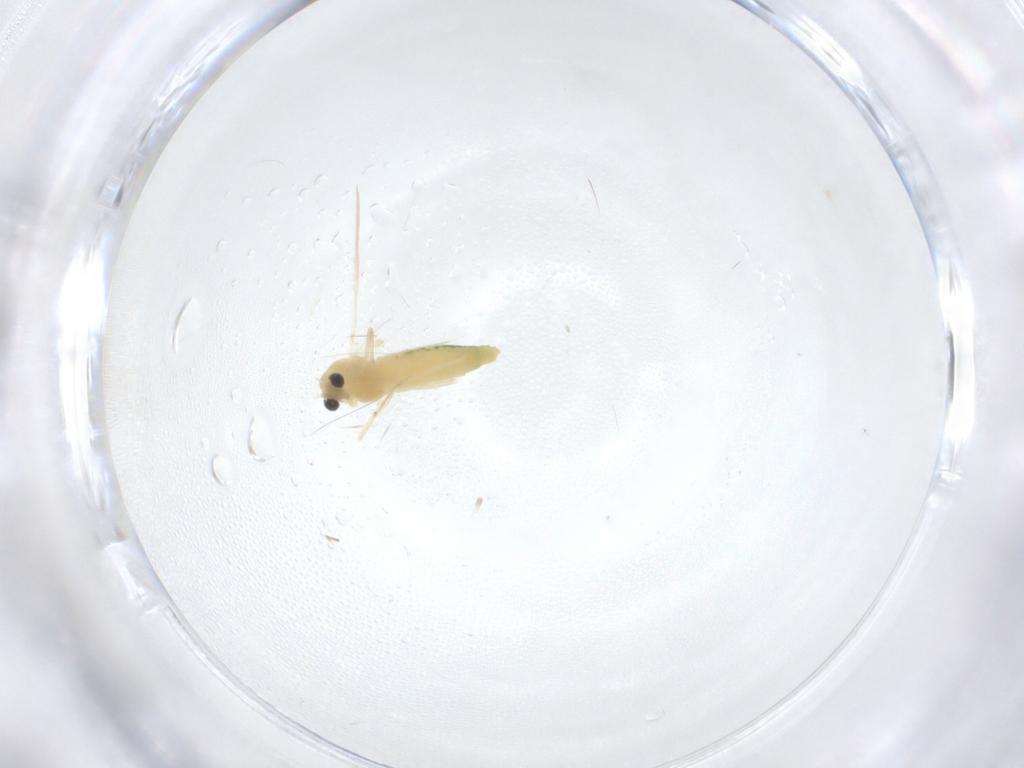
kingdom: Animalia
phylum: Arthropoda
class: Insecta
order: Diptera
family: Chironomidae
